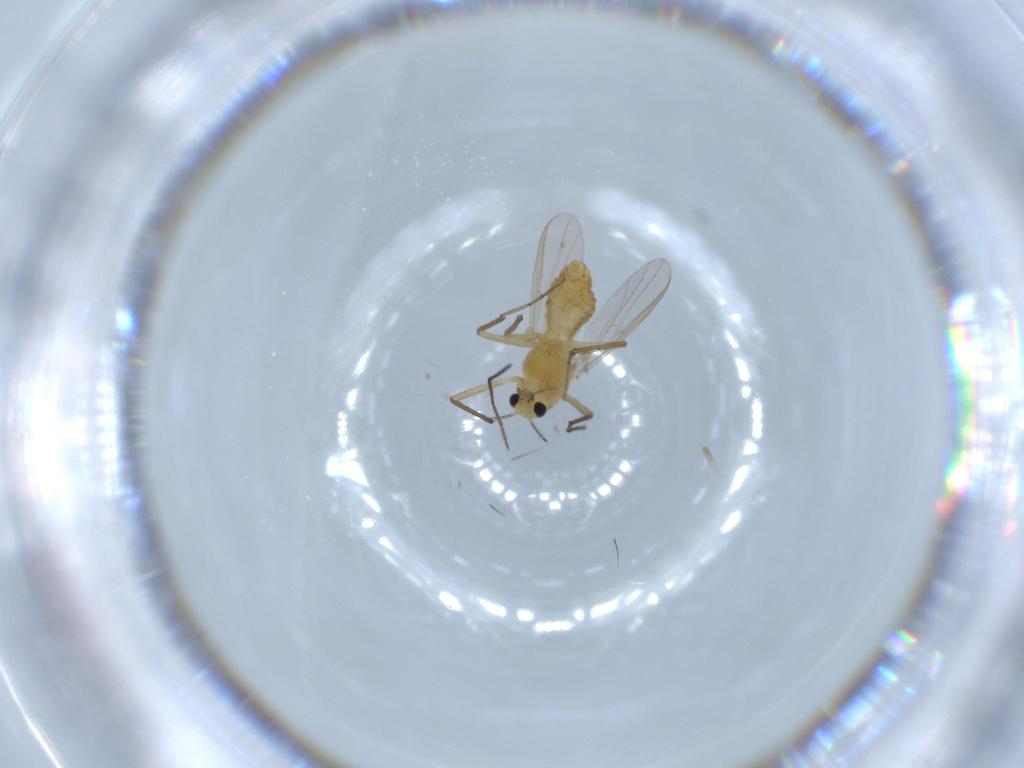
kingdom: Animalia
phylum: Arthropoda
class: Insecta
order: Diptera
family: Chironomidae
